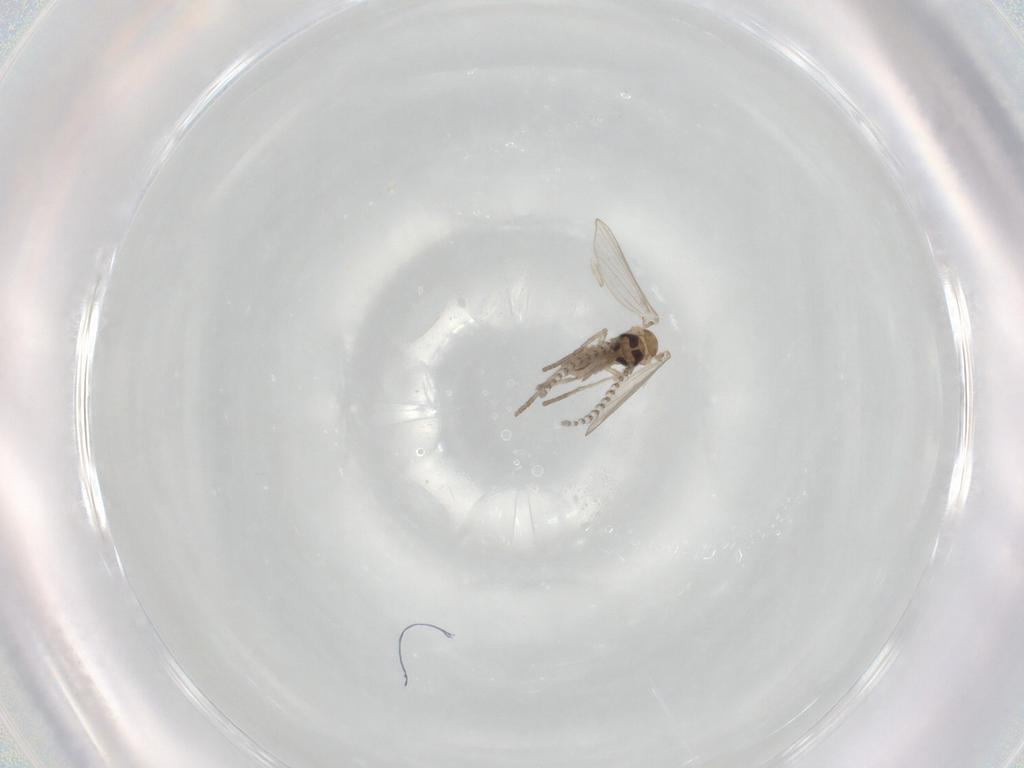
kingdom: Animalia
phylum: Arthropoda
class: Insecta
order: Diptera
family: Psychodidae
